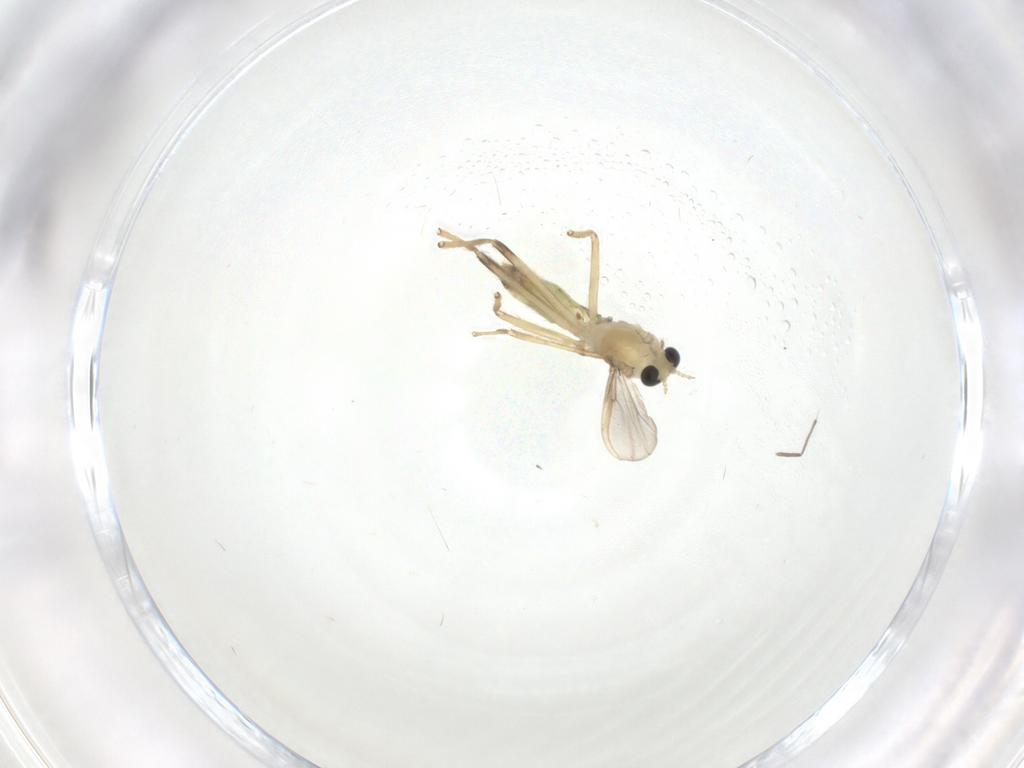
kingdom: Animalia
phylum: Arthropoda
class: Insecta
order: Diptera
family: Chironomidae
